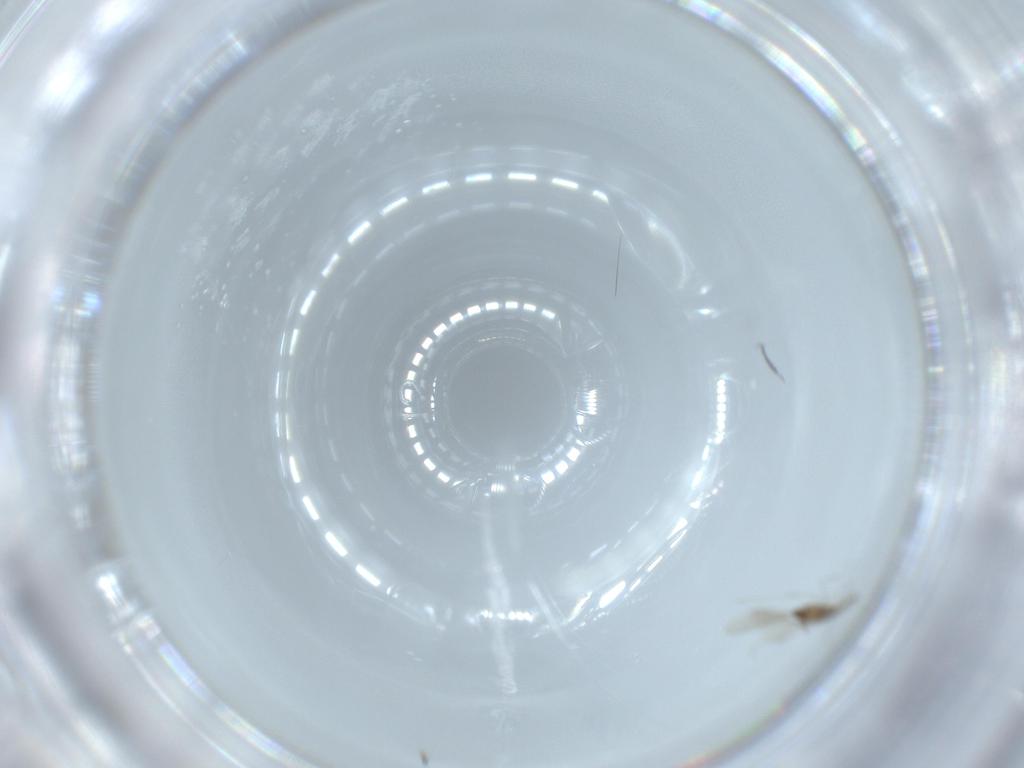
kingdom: Animalia
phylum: Arthropoda
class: Insecta
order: Diptera
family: Cecidomyiidae
